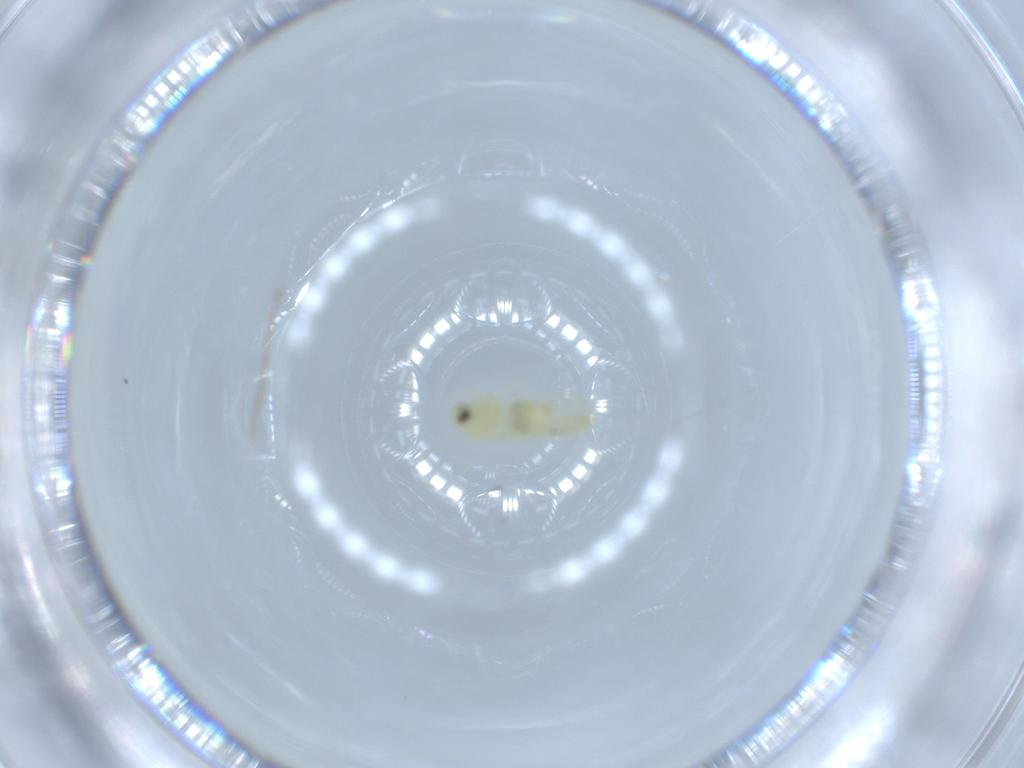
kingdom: Animalia
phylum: Arthropoda
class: Insecta
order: Hemiptera
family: Aleyrodidae
